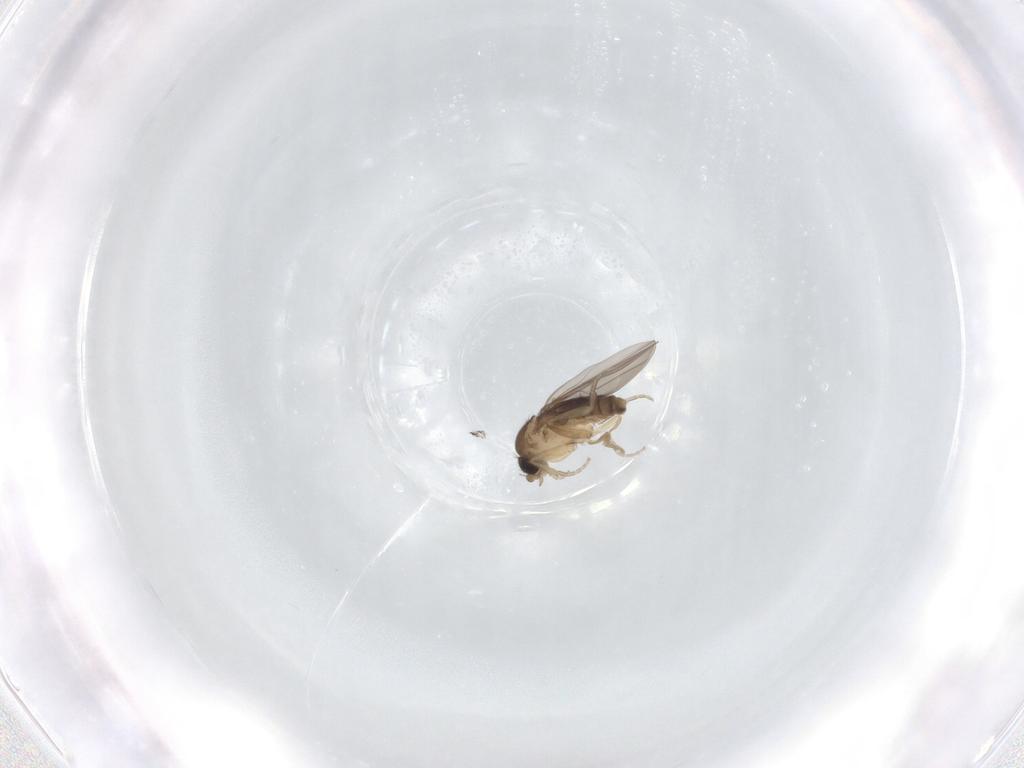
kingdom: Animalia
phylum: Arthropoda
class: Insecta
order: Diptera
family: Phoridae
